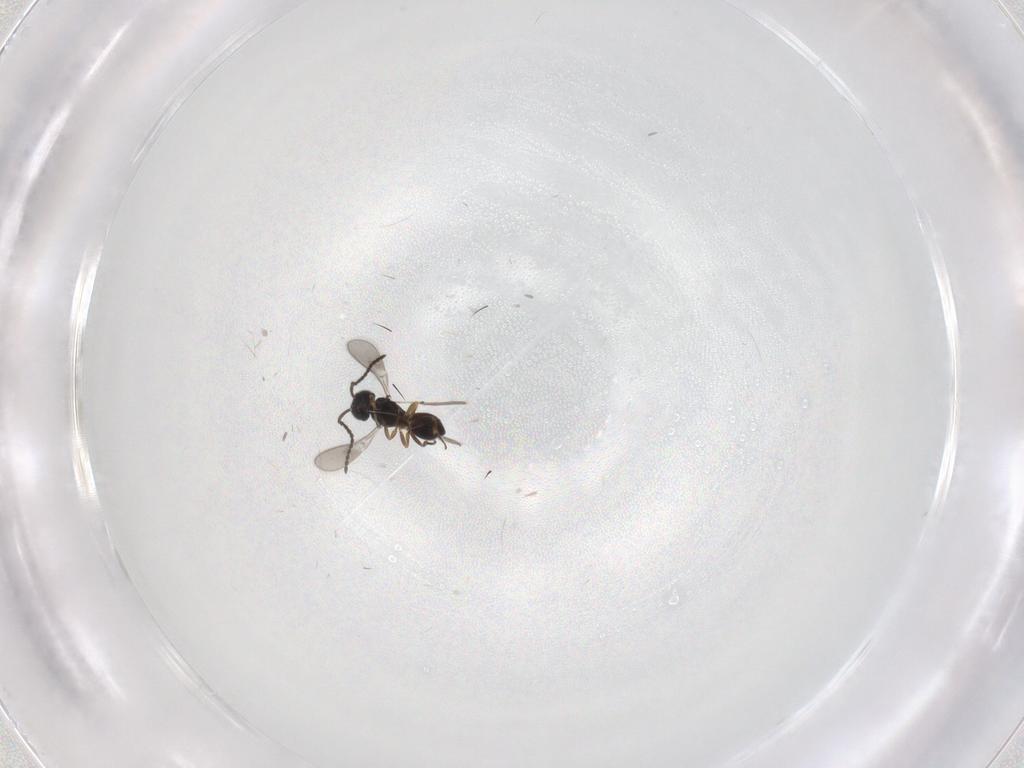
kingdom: Animalia
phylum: Arthropoda
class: Insecta
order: Hymenoptera
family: Scelionidae
